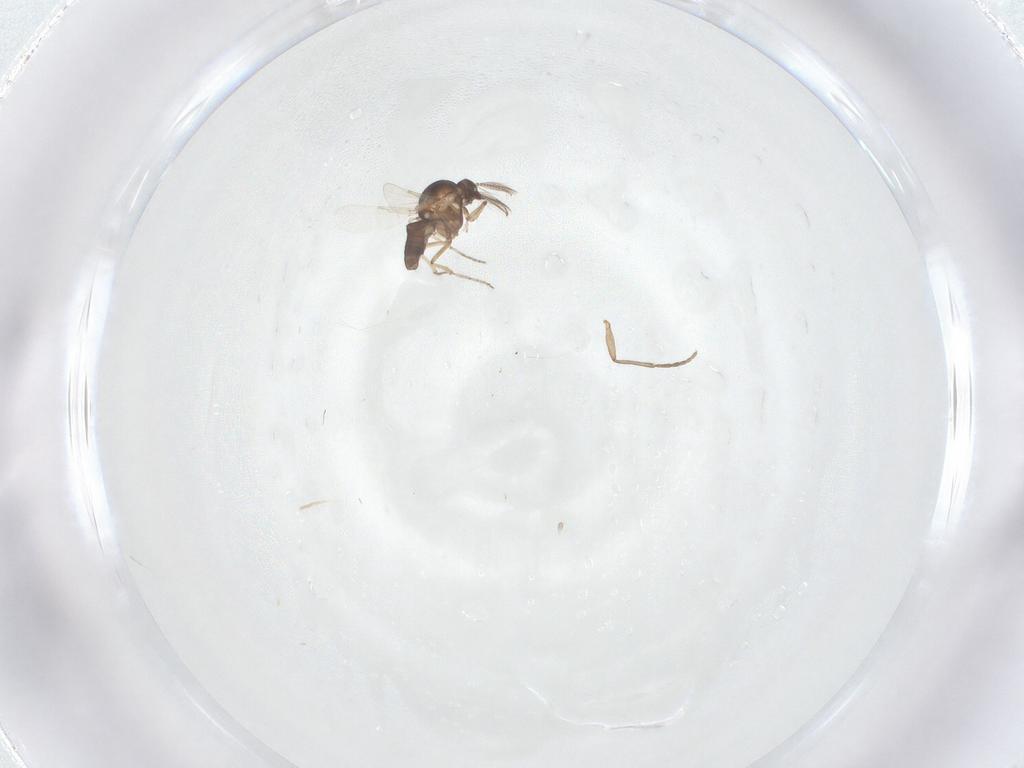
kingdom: Animalia
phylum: Arthropoda
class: Insecta
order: Diptera
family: Ceratopogonidae
